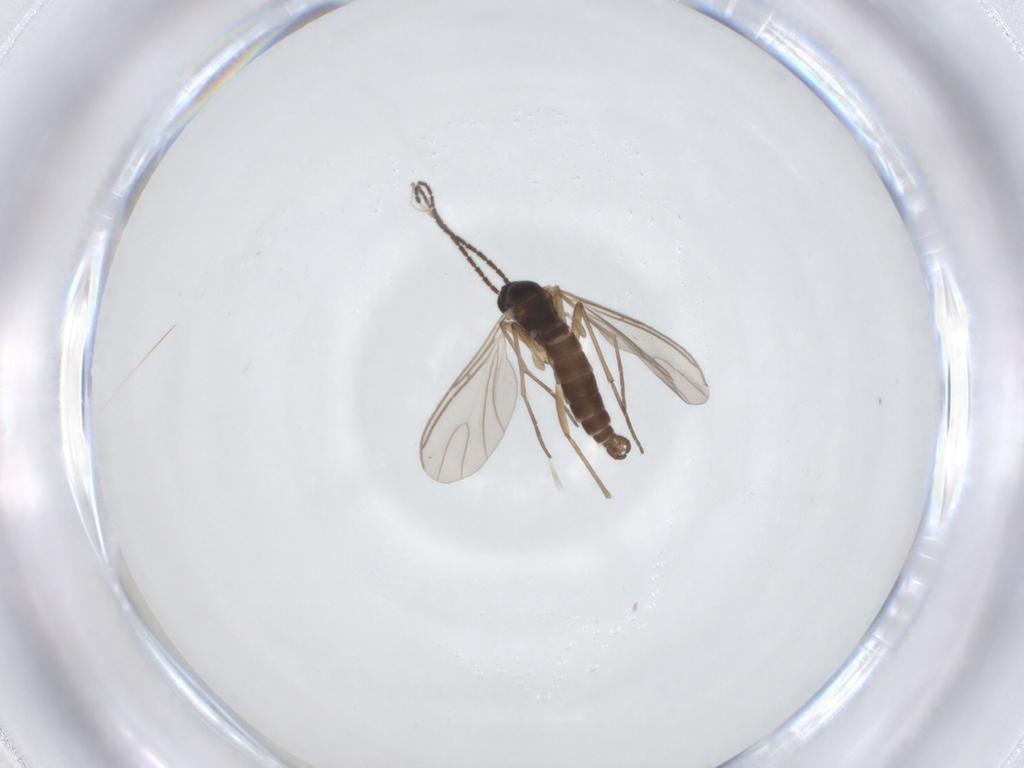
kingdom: Animalia
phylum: Arthropoda
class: Insecta
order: Diptera
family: Sciaridae
